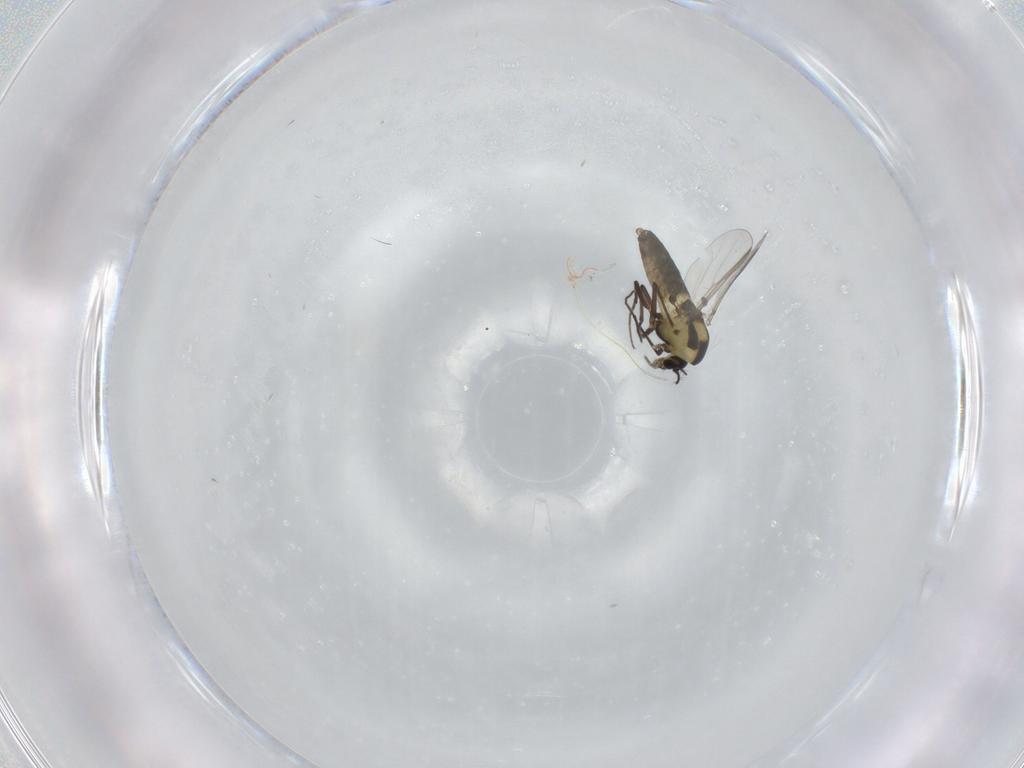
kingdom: Animalia
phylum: Arthropoda
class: Insecta
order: Diptera
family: Chironomidae
